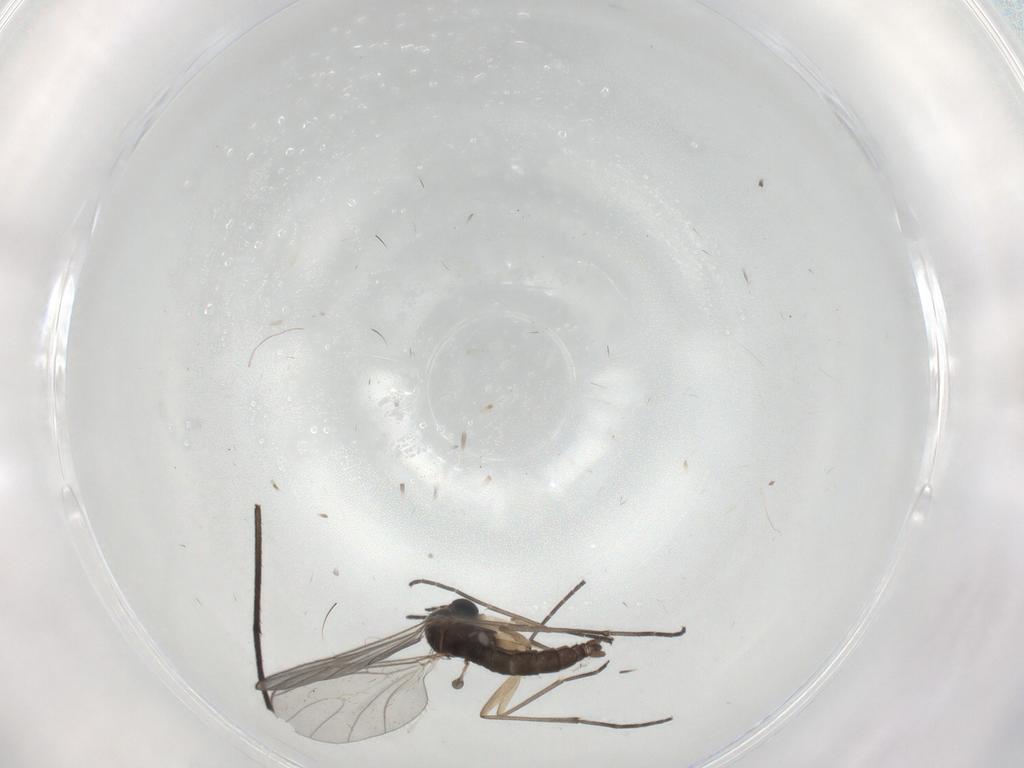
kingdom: Animalia
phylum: Arthropoda
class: Insecta
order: Diptera
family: Sciaridae
